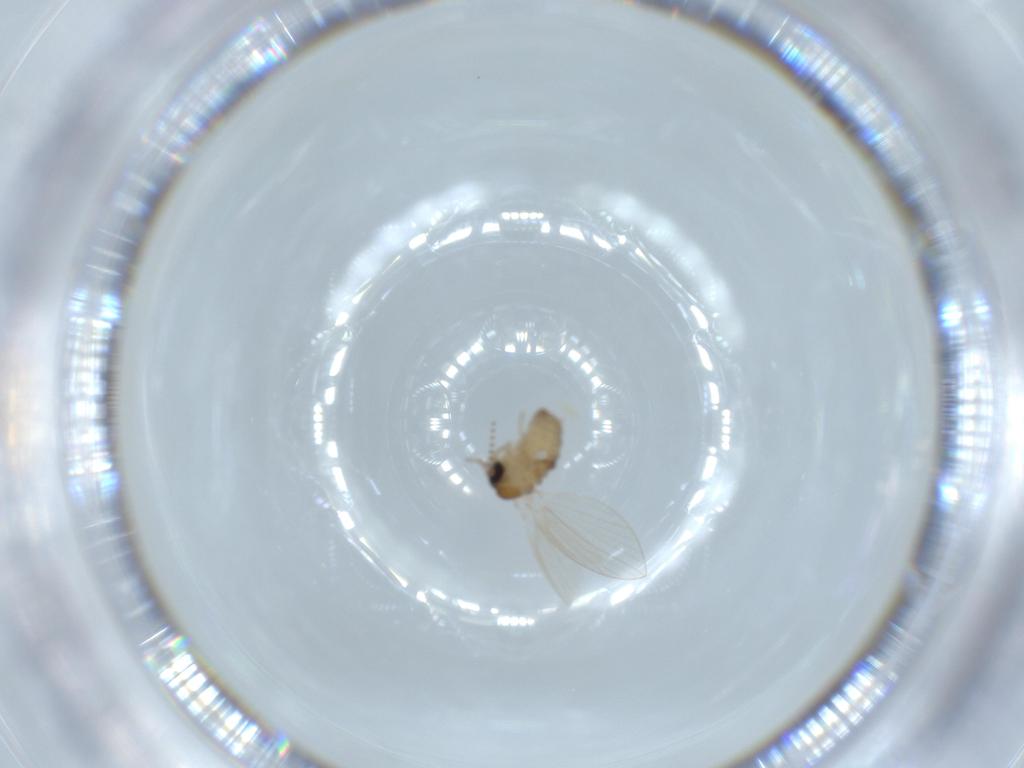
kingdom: Animalia
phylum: Arthropoda
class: Insecta
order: Diptera
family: Psychodidae
